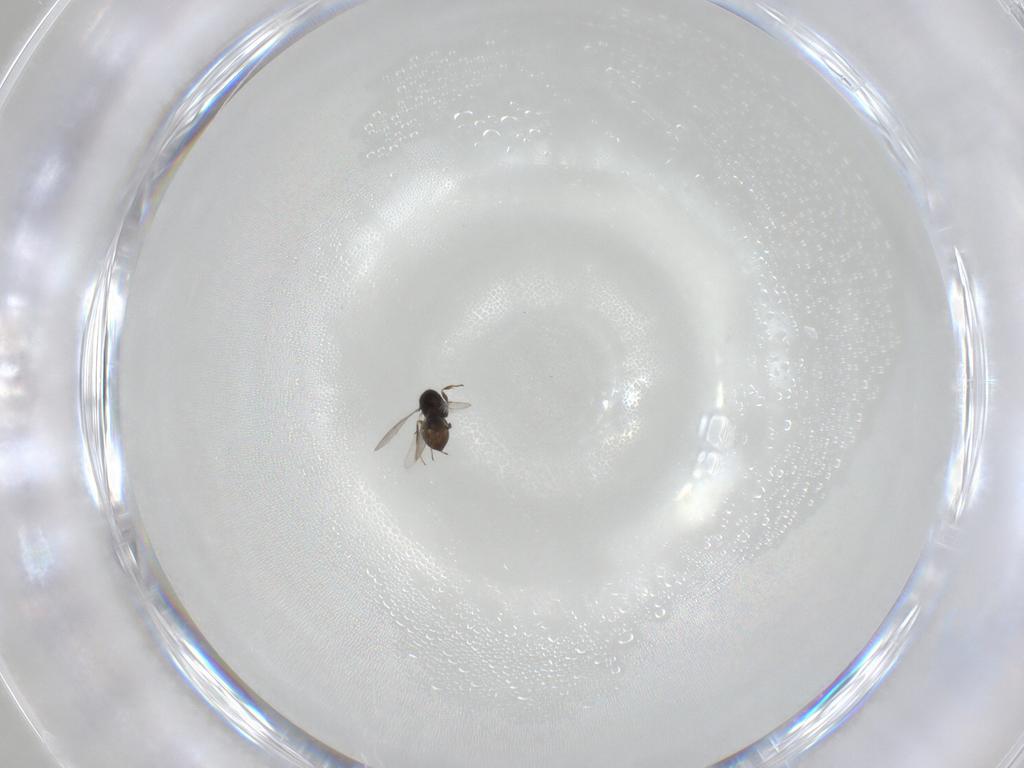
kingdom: Animalia
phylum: Arthropoda
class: Insecta
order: Hymenoptera
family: Scelionidae
